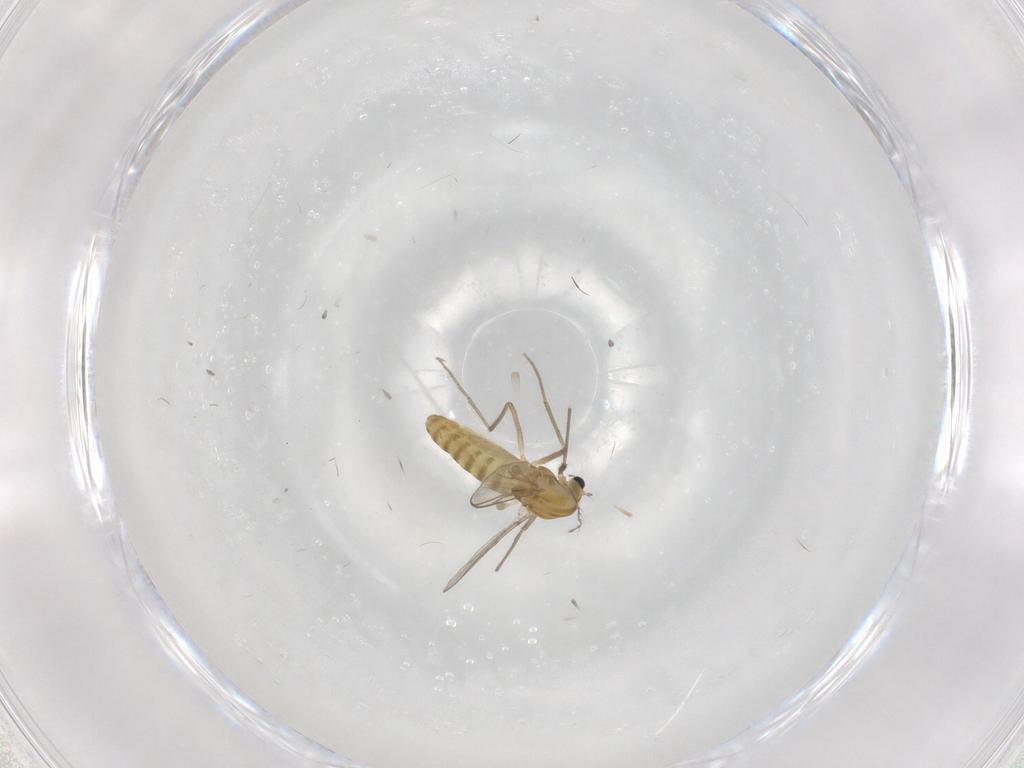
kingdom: Animalia
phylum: Arthropoda
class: Insecta
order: Diptera
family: Chironomidae
